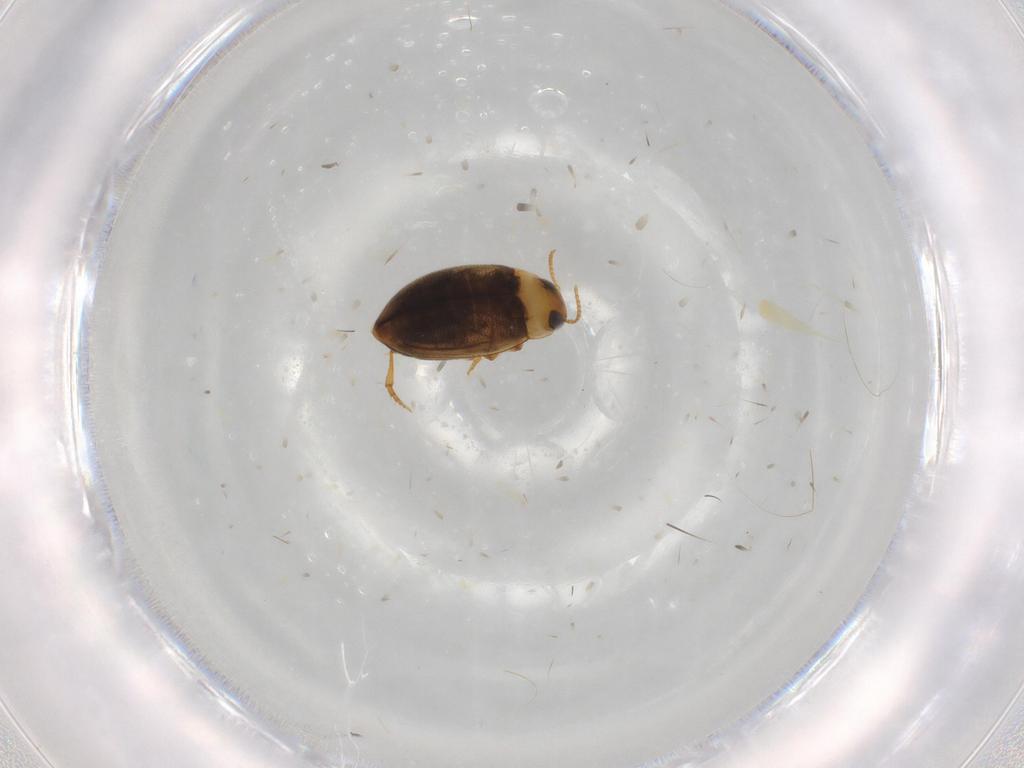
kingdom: Animalia
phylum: Arthropoda
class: Insecta
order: Coleoptera
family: Dytiscidae
